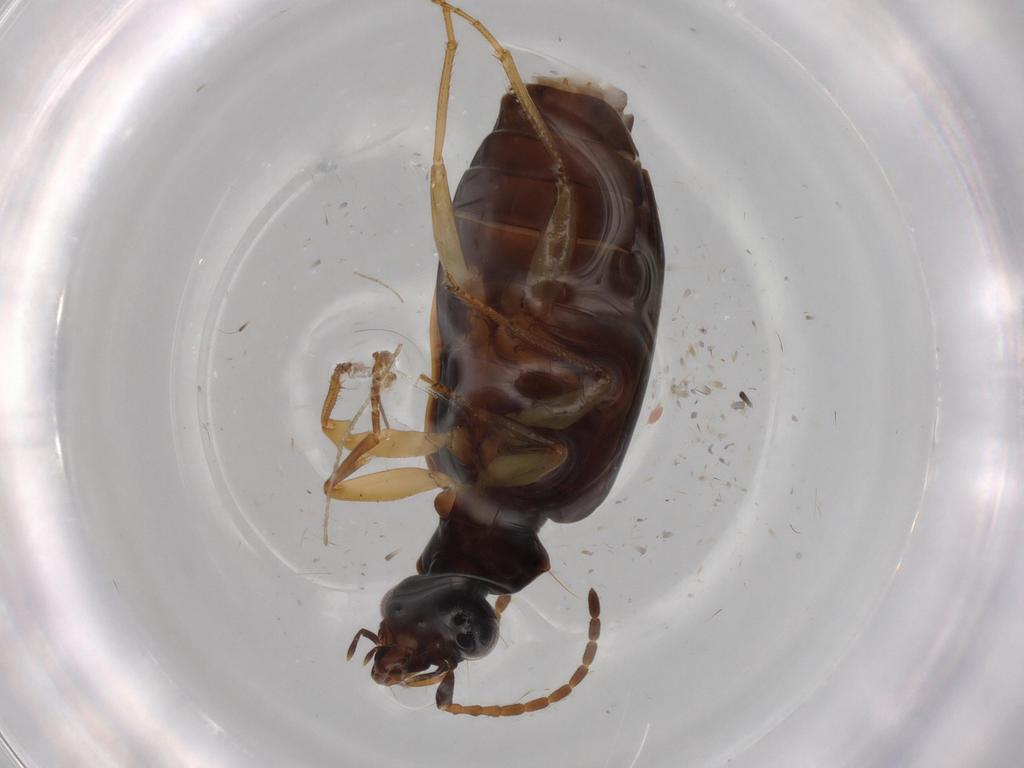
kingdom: Animalia
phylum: Arthropoda
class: Insecta
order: Coleoptera
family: Carabidae
